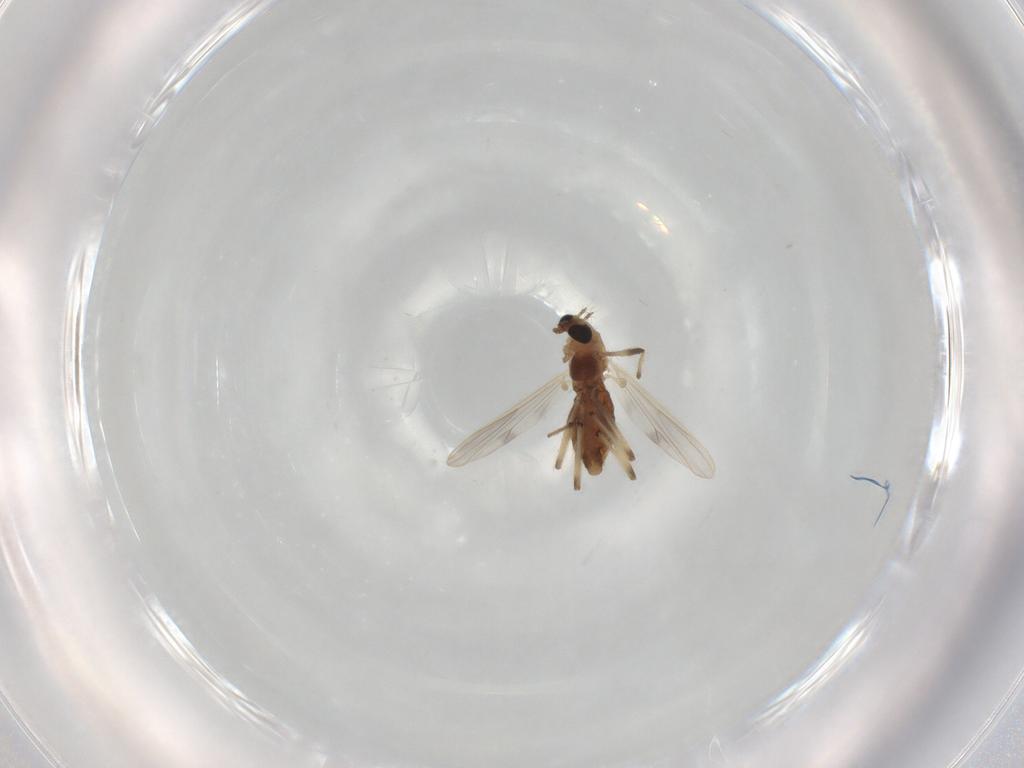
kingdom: Animalia
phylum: Arthropoda
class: Insecta
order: Diptera
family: Chironomidae
